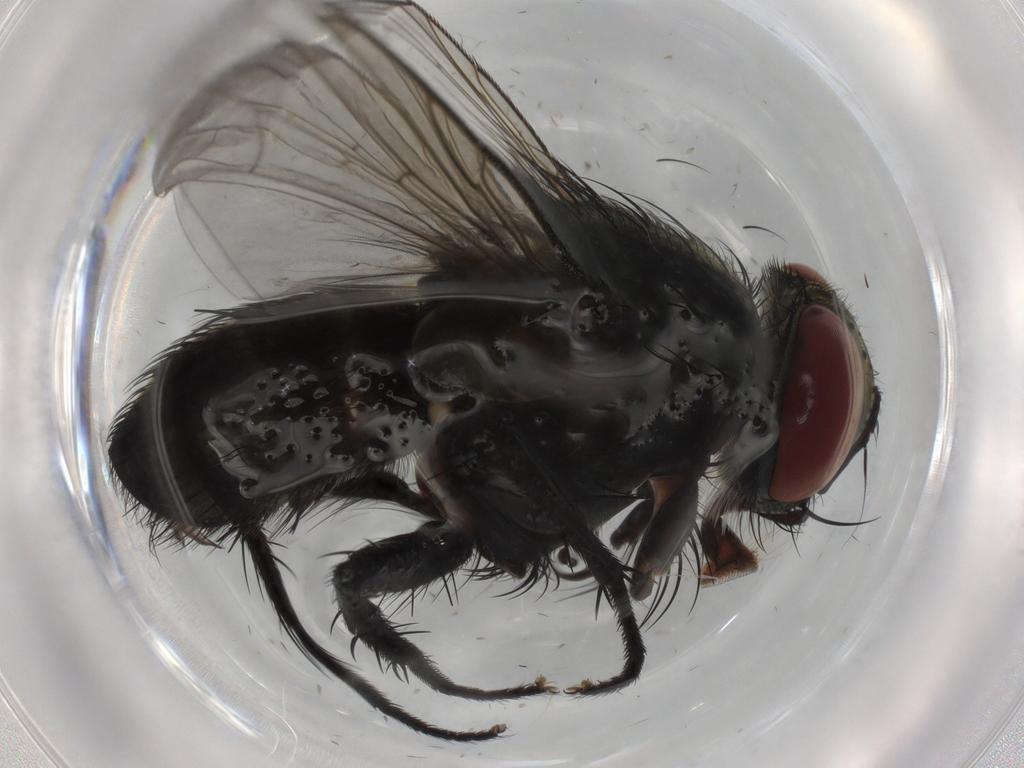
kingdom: Animalia
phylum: Arthropoda
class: Insecta
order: Diptera
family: Tachinidae
